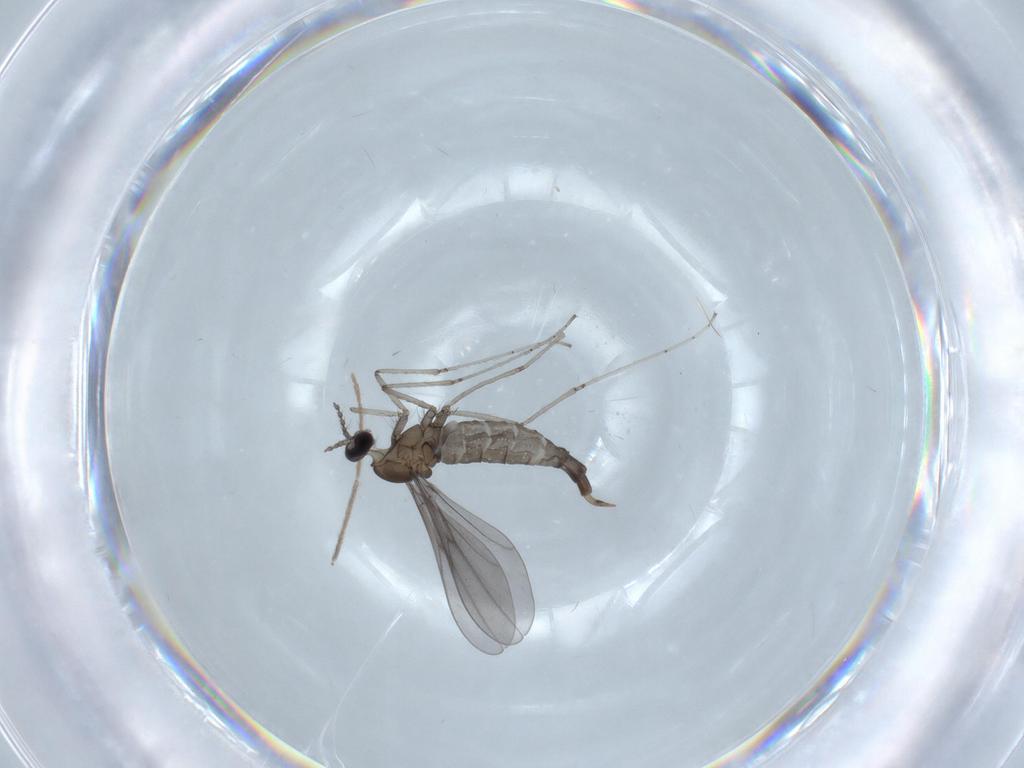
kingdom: Animalia
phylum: Arthropoda
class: Insecta
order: Diptera
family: Cecidomyiidae
